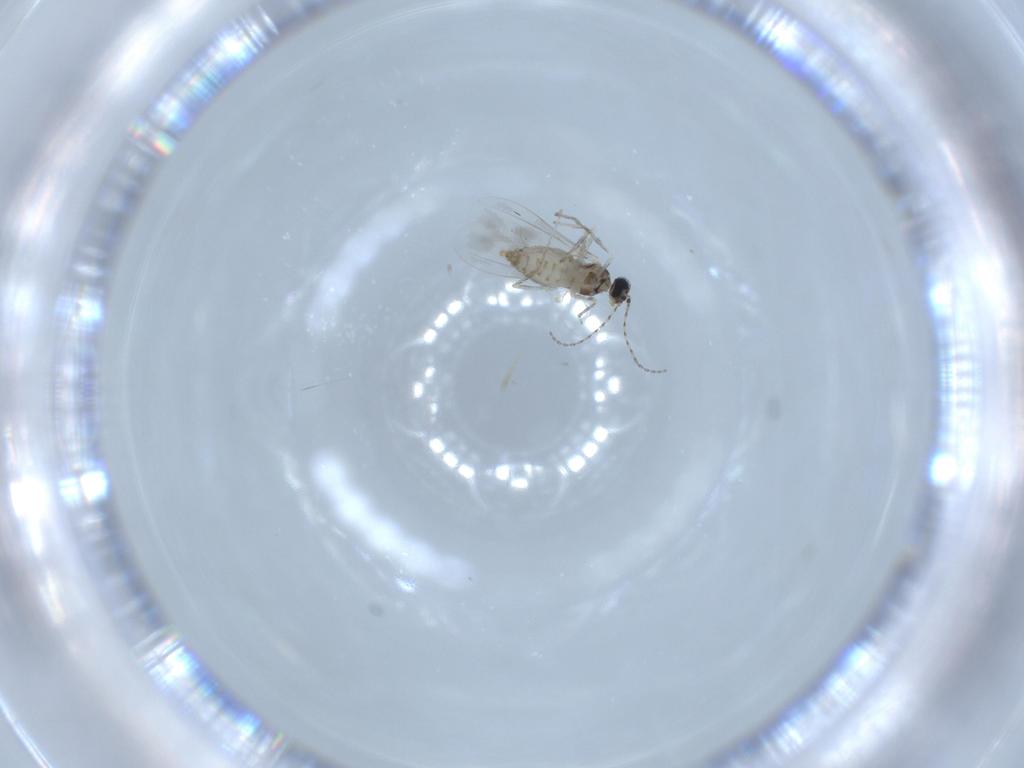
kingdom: Animalia
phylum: Arthropoda
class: Insecta
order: Diptera
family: Cecidomyiidae
